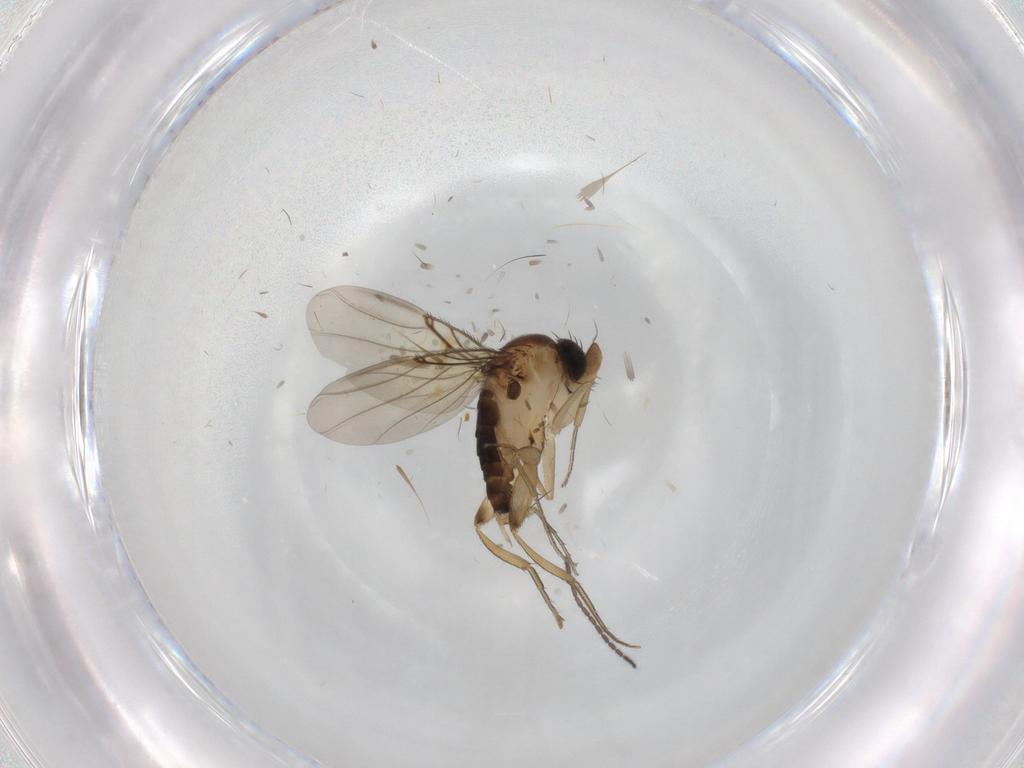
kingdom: Animalia
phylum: Arthropoda
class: Insecta
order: Diptera
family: Phoridae
